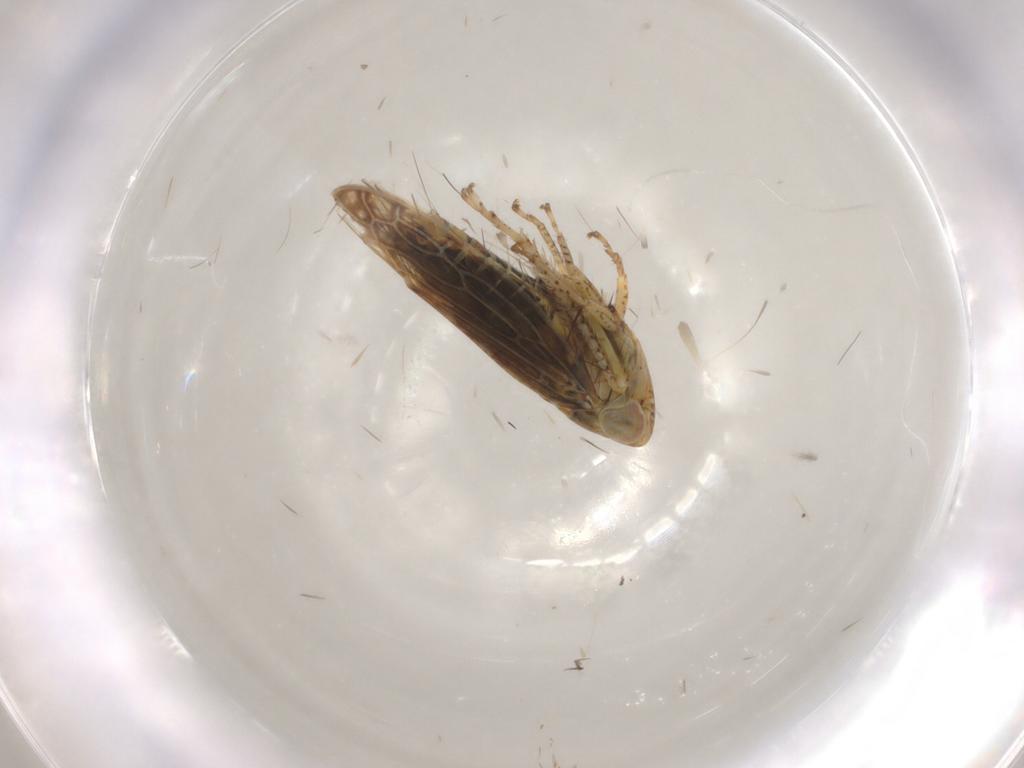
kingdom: Animalia
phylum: Arthropoda
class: Insecta
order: Hemiptera
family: Cicadellidae
